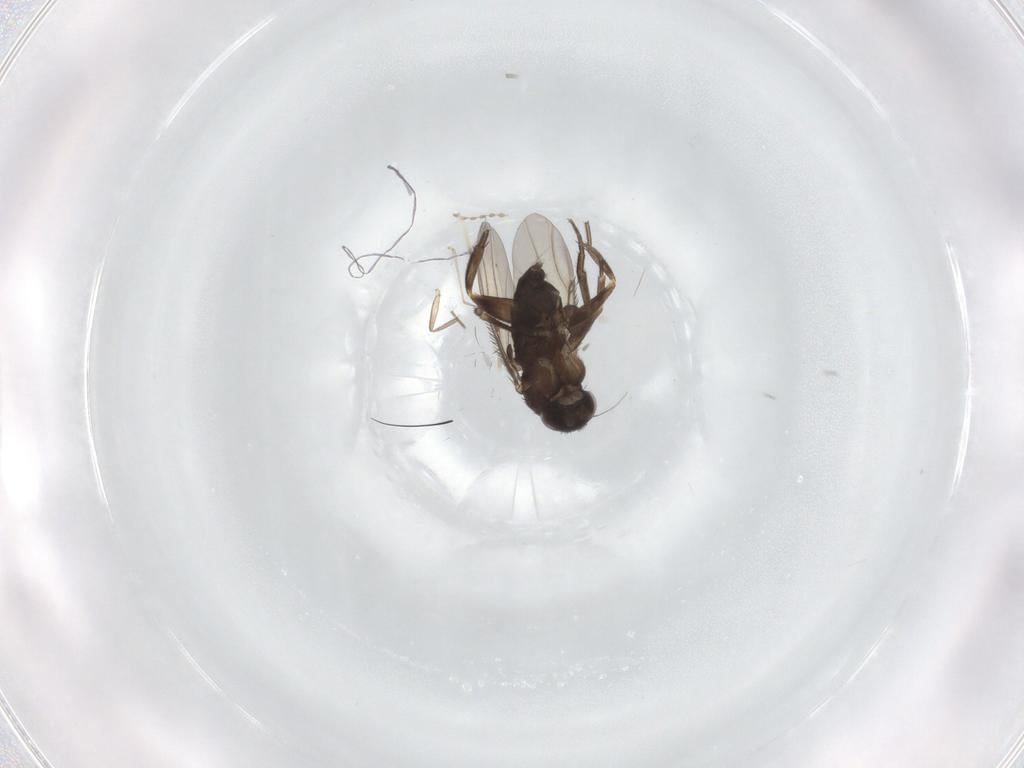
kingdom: Animalia
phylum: Arthropoda
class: Insecta
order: Diptera
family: Phoridae
